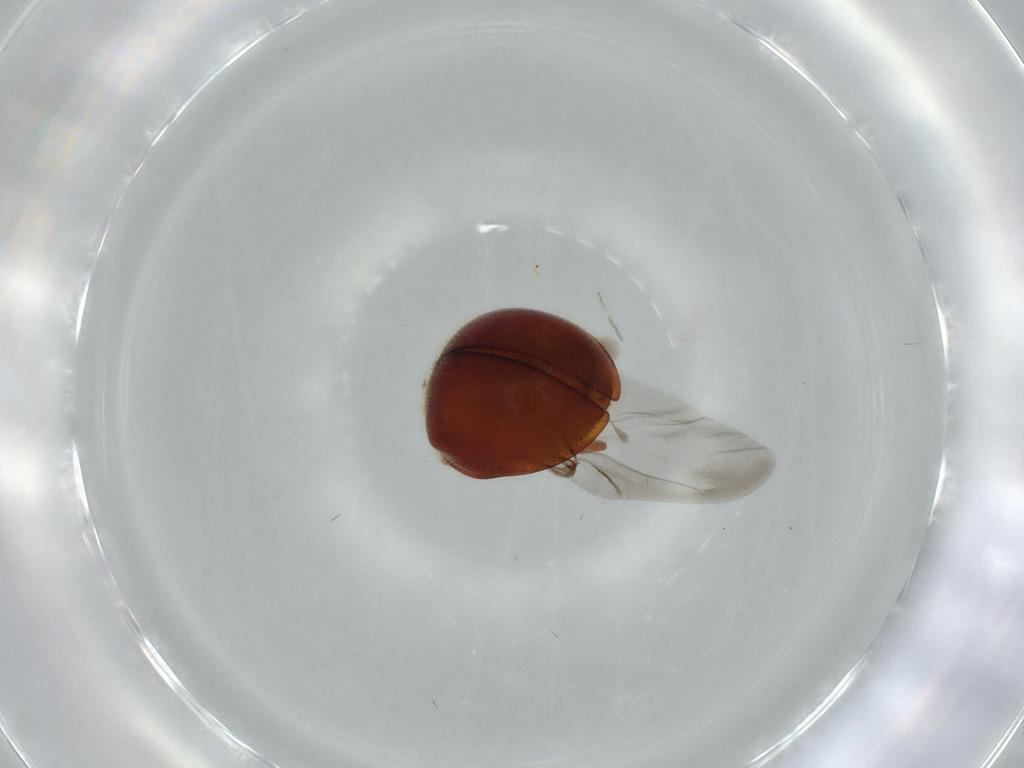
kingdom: Animalia
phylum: Arthropoda
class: Insecta
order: Coleoptera
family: Coccinellidae
